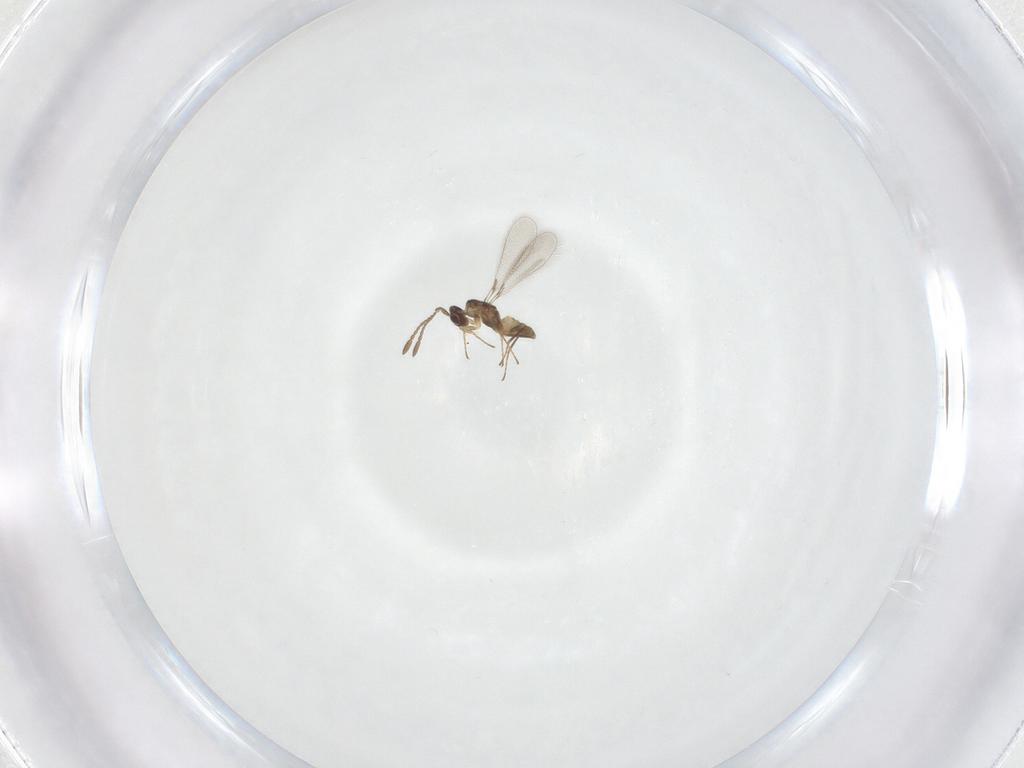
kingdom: Animalia
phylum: Arthropoda
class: Insecta
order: Hymenoptera
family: Mymaridae
